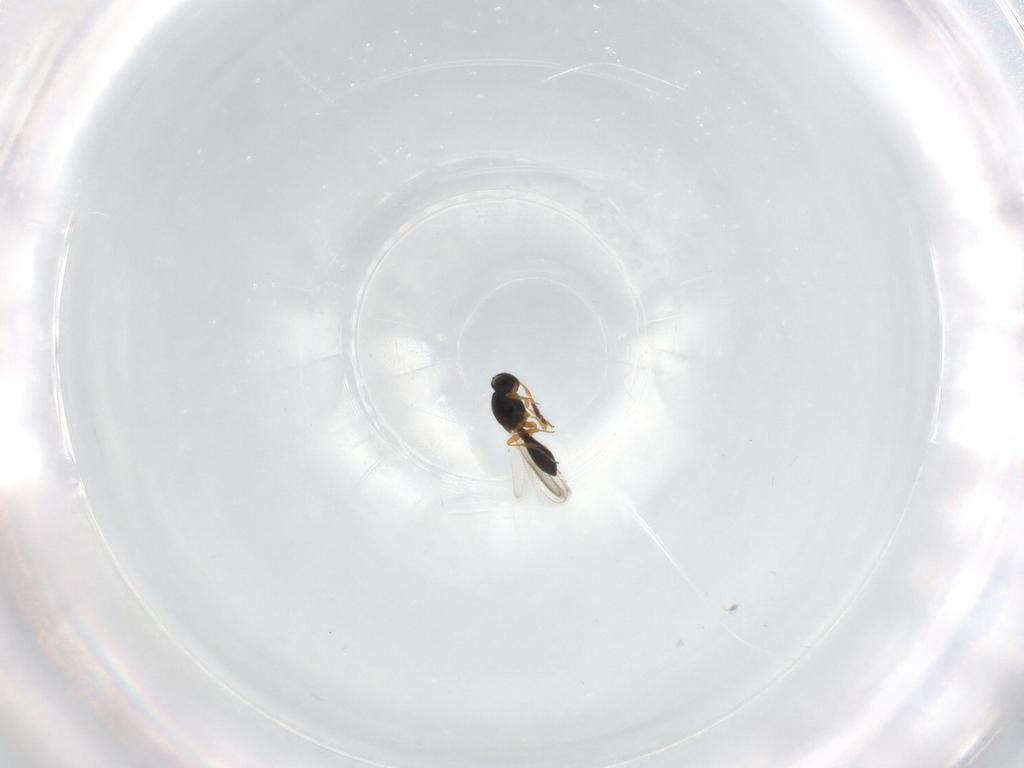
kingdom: Animalia
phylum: Arthropoda
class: Insecta
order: Hymenoptera
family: Platygastridae
